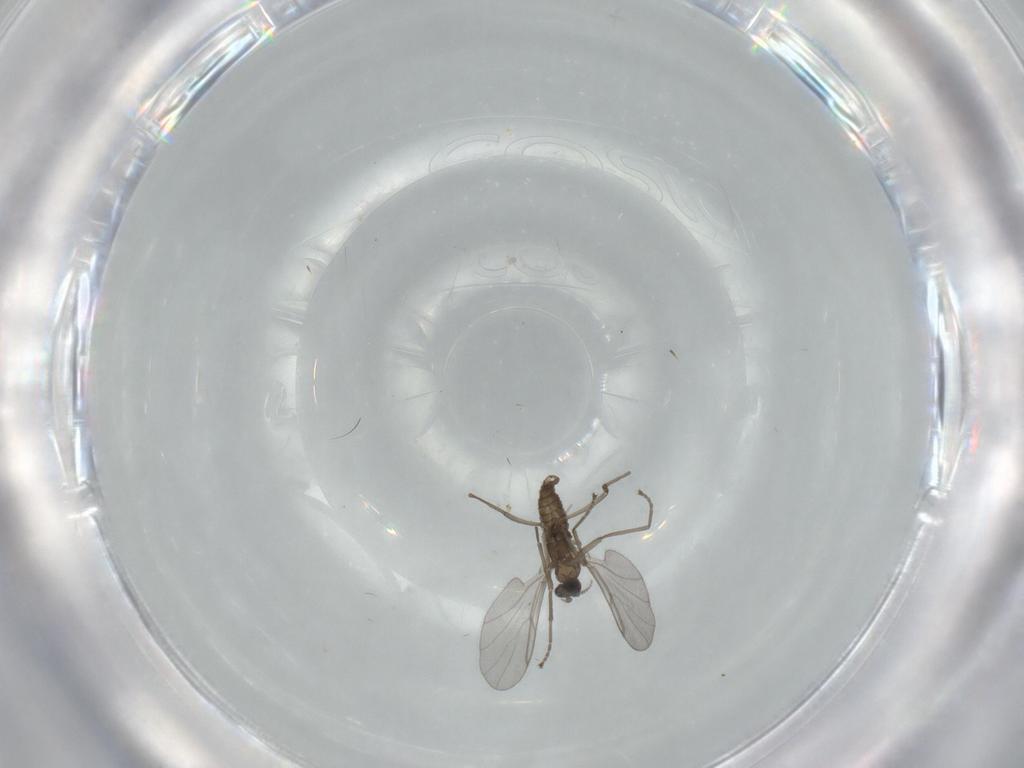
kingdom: Animalia
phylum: Arthropoda
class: Insecta
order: Diptera
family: Cecidomyiidae
